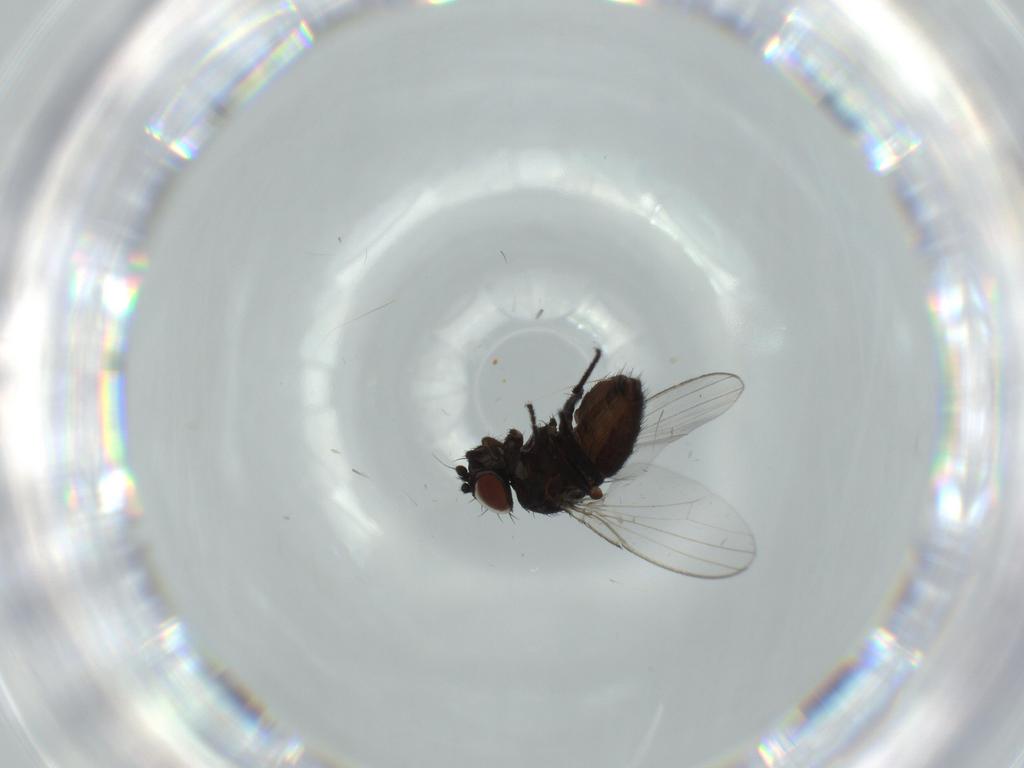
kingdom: Animalia
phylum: Arthropoda
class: Insecta
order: Diptera
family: Milichiidae
